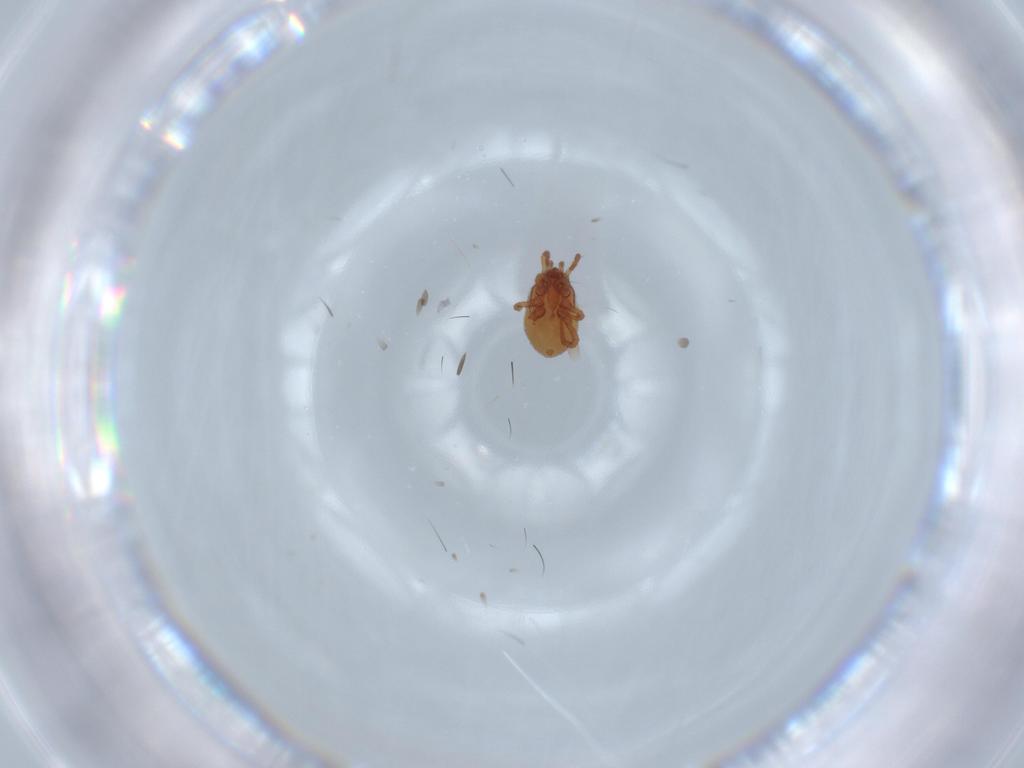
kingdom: Animalia
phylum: Arthropoda
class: Arachnida
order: Mesostigmata
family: Parasitidae
